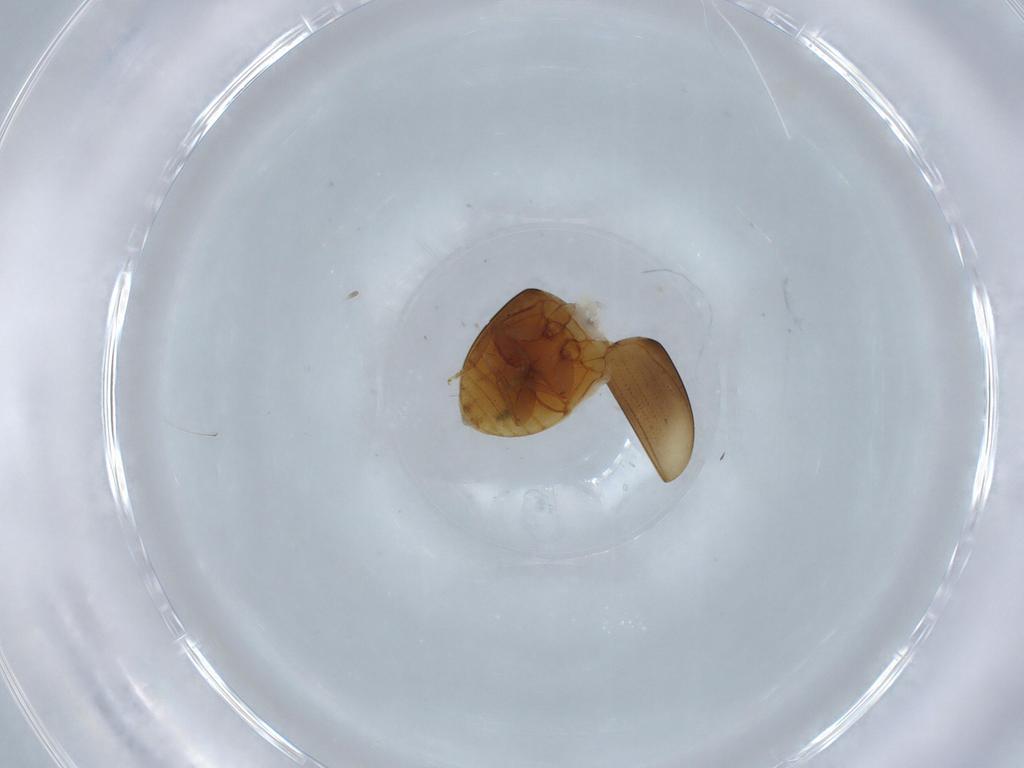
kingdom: Animalia
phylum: Arthropoda
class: Insecta
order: Coleoptera
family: Phalacridae
